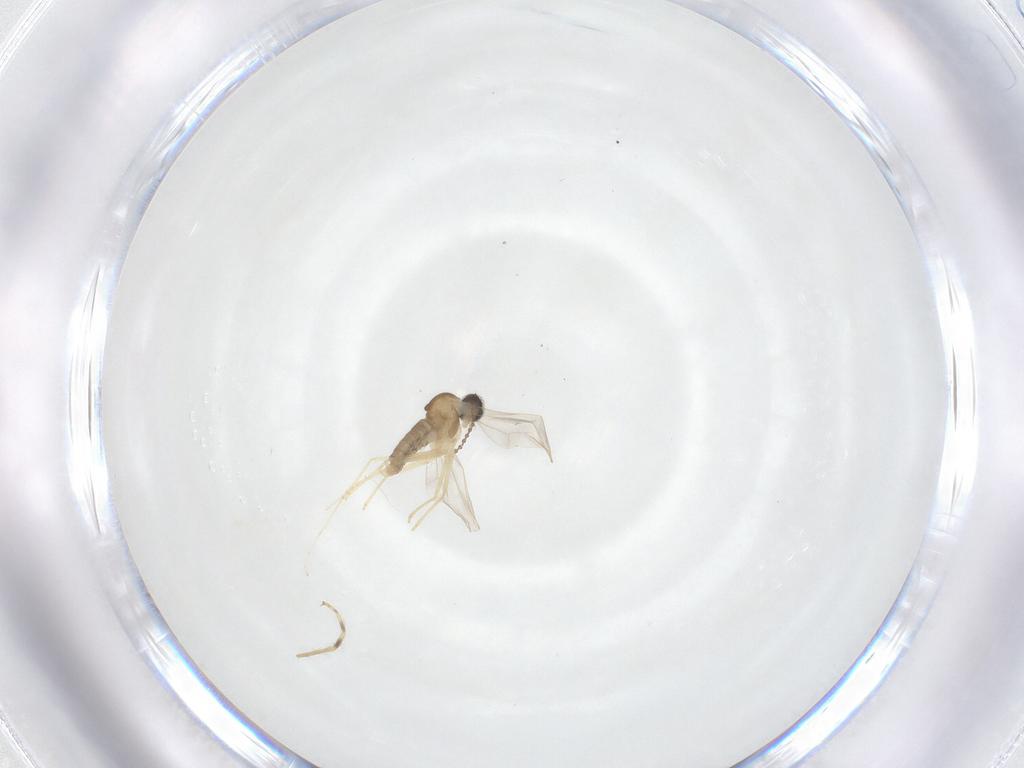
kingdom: Animalia
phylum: Arthropoda
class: Insecta
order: Diptera
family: Cecidomyiidae
